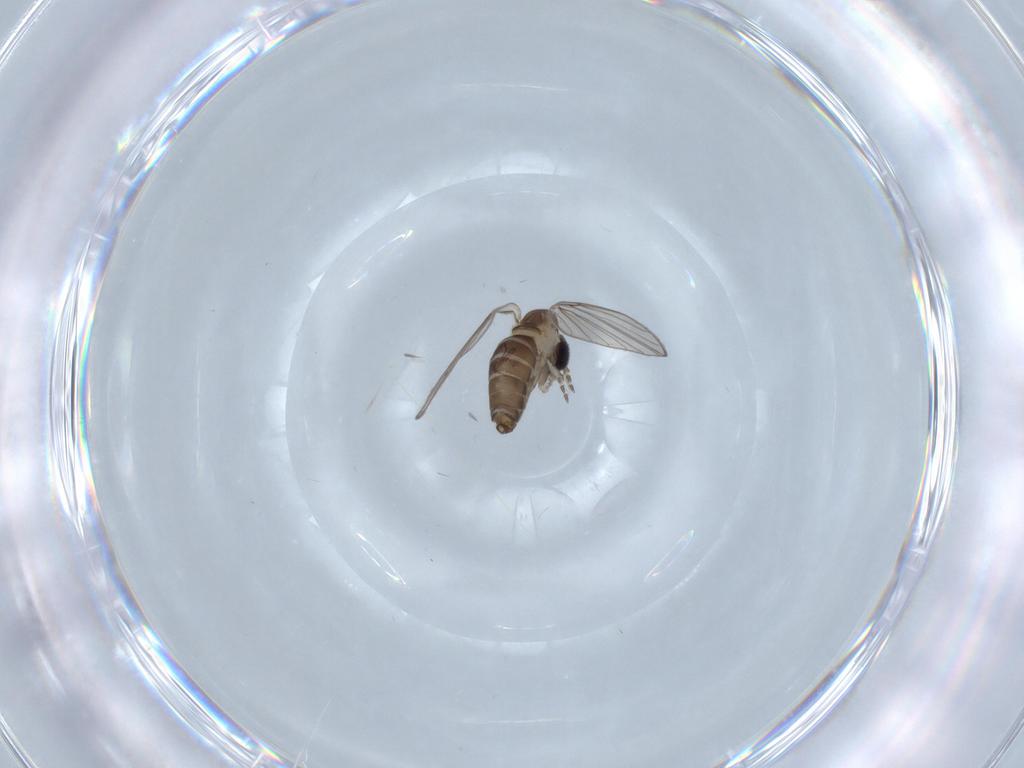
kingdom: Animalia
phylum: Arthropoda
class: Insecta
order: Diptera
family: Psychodidae
